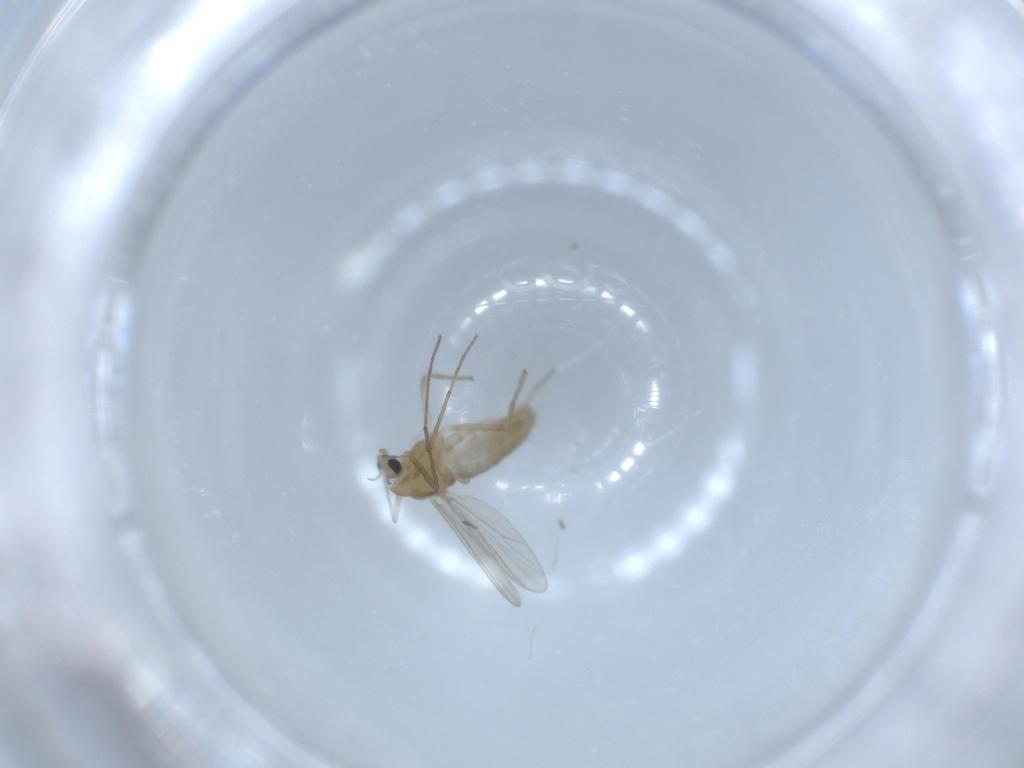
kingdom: Animalia
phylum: Arthropoda
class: Insecta
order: Diptera
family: Chironomidae
